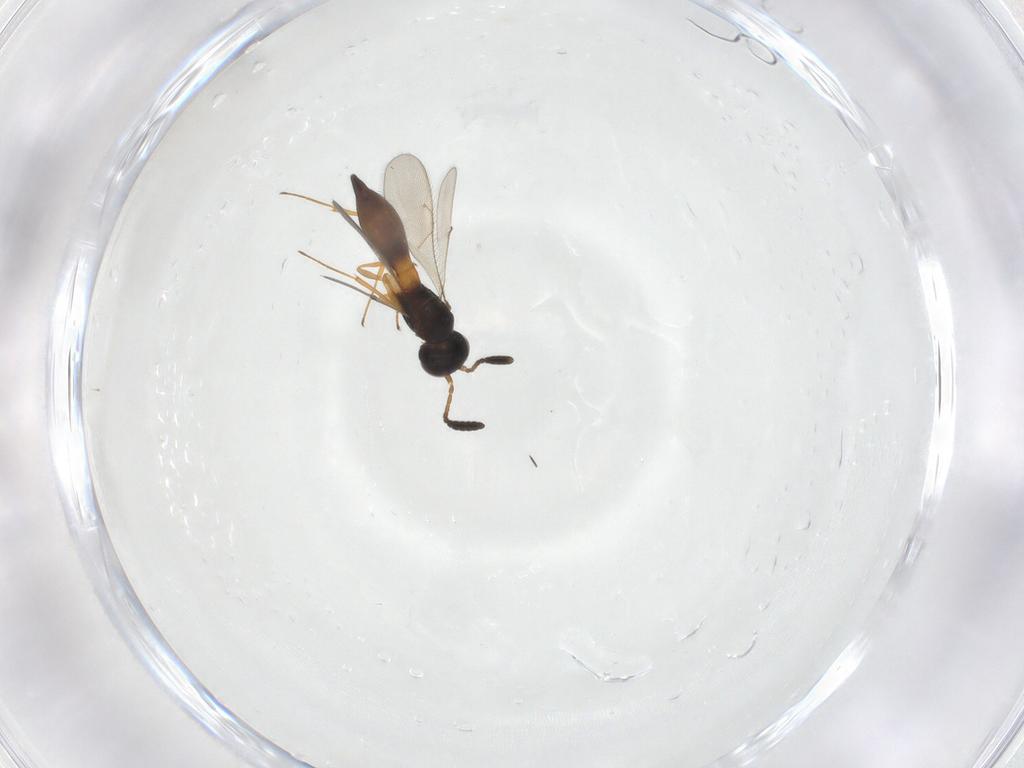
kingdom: Animalia
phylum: Arthropoda
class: Insecta
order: Hymenoptera
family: Scelionidae
